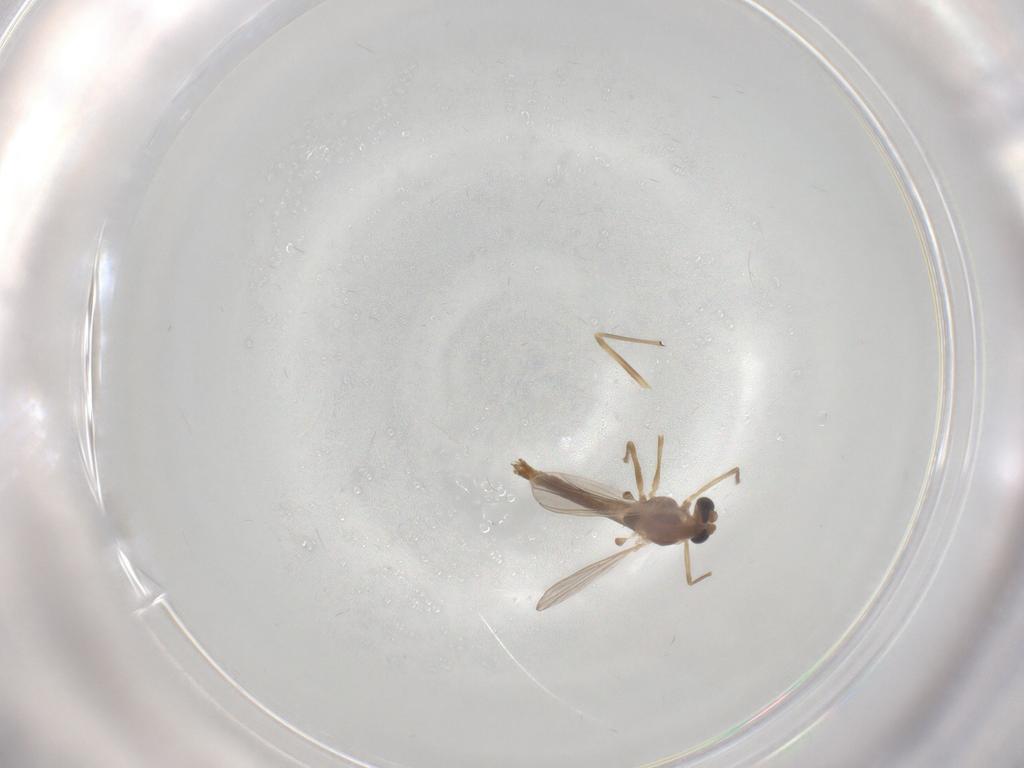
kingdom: Animalia
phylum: Arthropoda
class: Insecta
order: Diptera
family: Chironomidae
